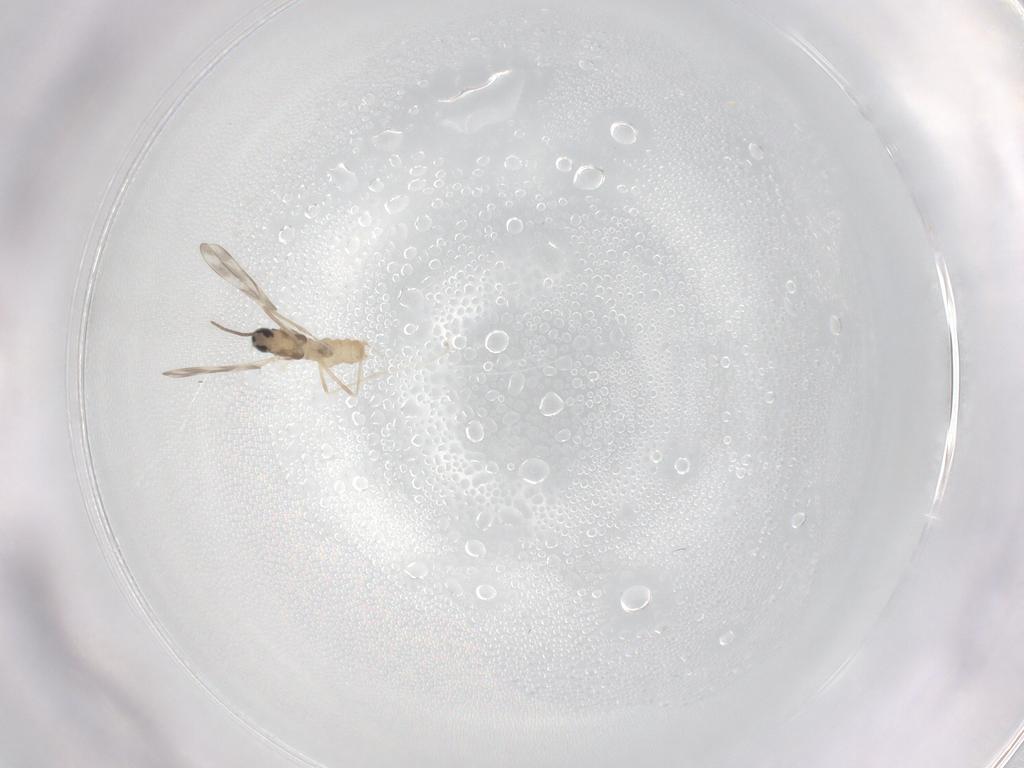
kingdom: Animalia
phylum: Arthropoda
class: Insecta
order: Diptera
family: Cecidomyiidae
